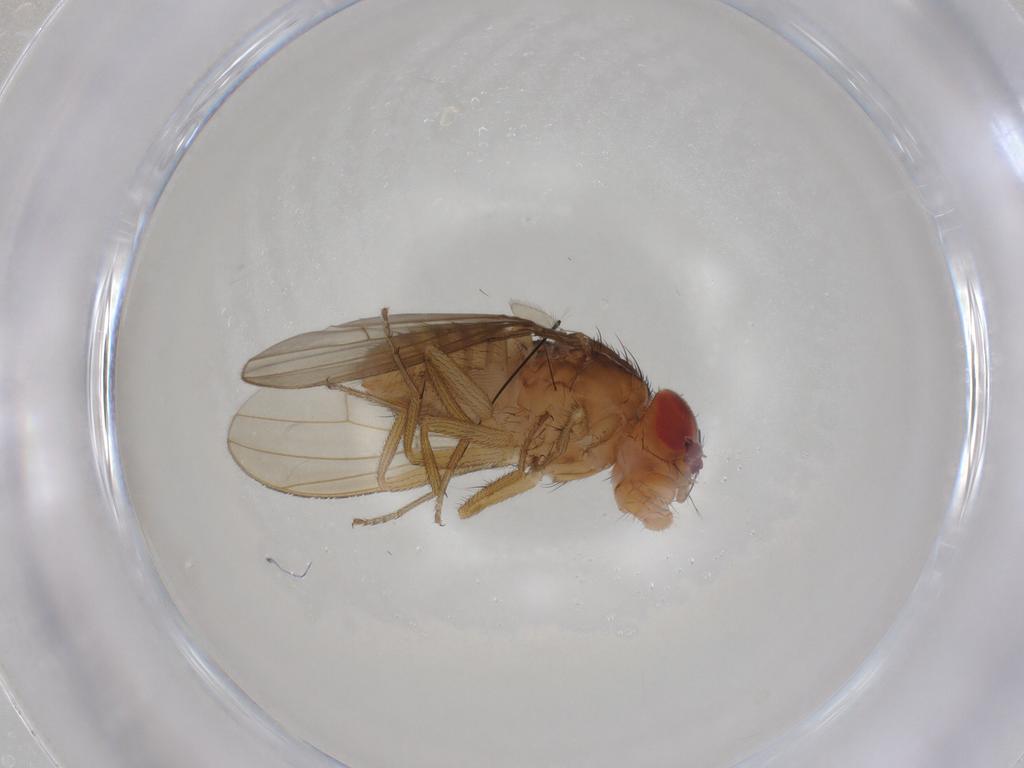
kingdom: Animalia
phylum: Arthropoda
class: Insecta
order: Diptera
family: Drosophilidae
